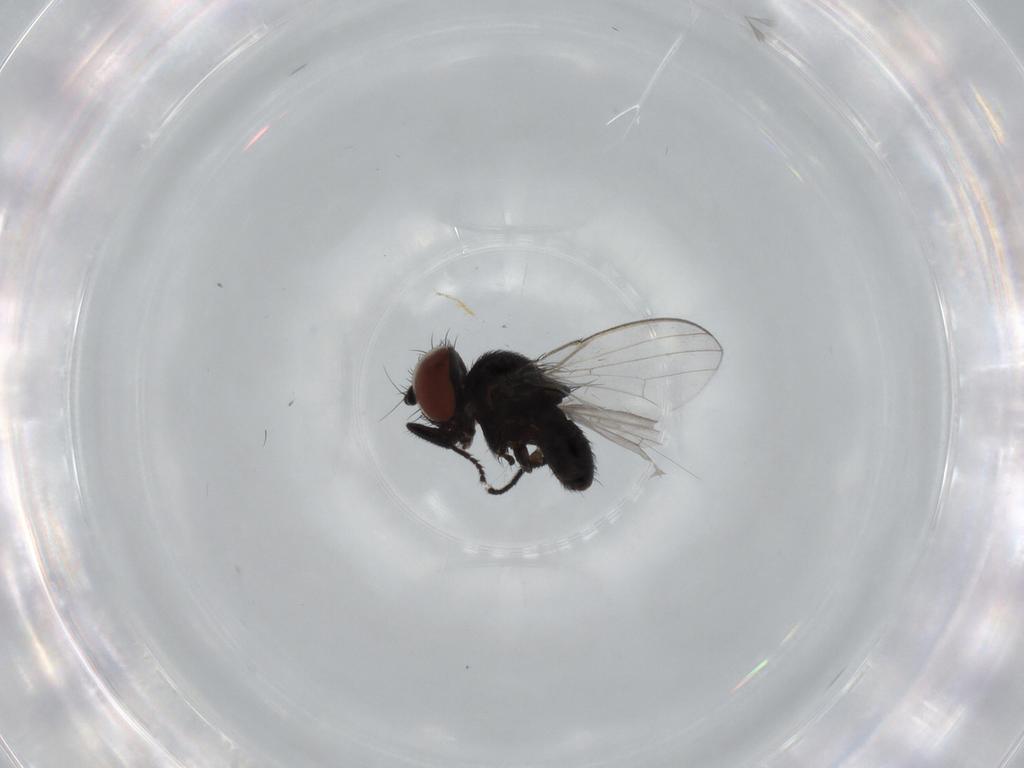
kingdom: Animalia
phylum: Arthropoda
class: Insecta
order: Diptera
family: Milichiidae
